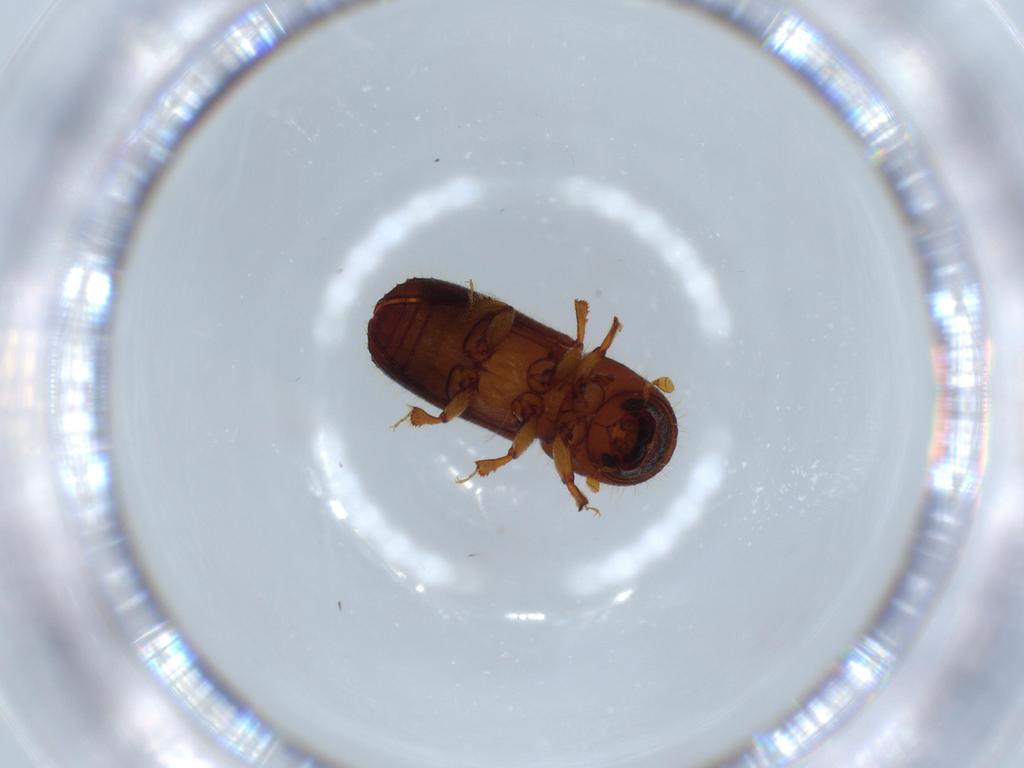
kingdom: Animalia
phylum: Arthropoda
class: Insecta
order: Coleoptera
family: Curculionidae
